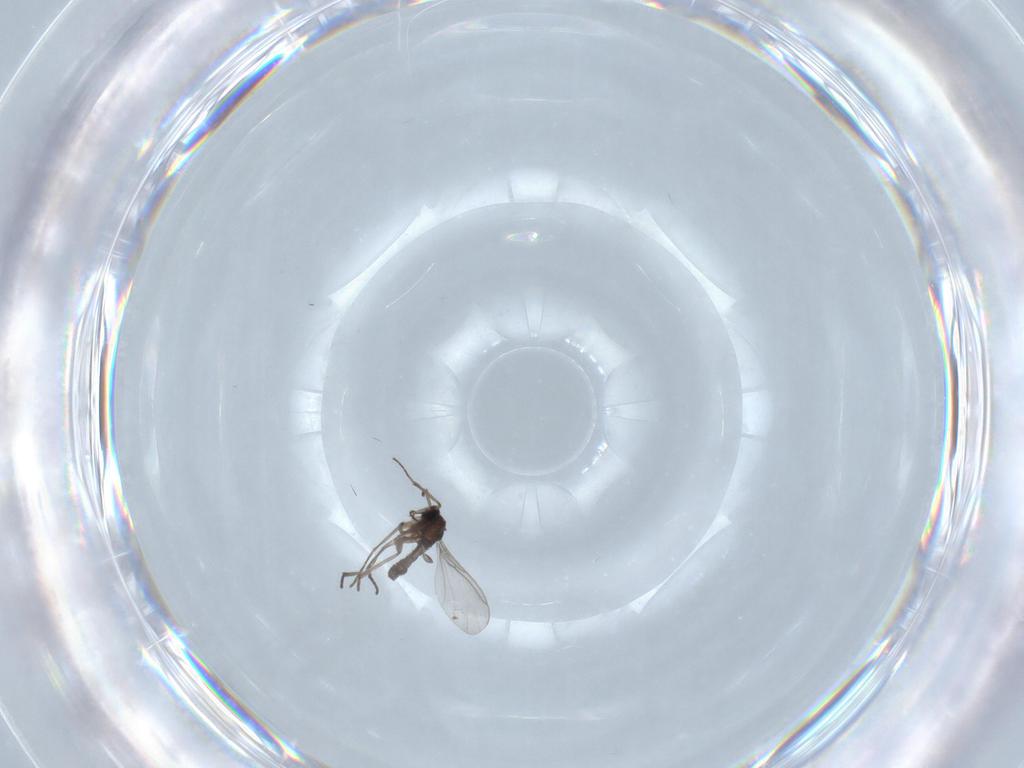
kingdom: Animalia
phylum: Arthropoda
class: Insecta
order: Diptera
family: Sciaridae
